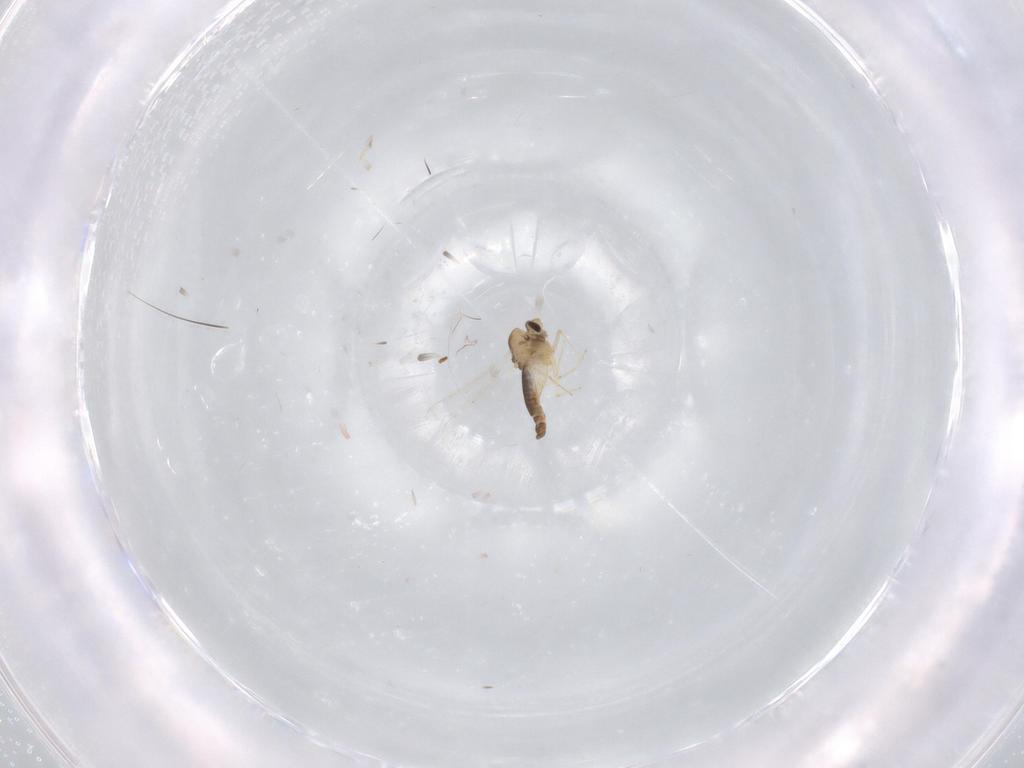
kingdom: Animalia
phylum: Arthropoda
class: Insecta
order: Diptera
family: Chironomidae
